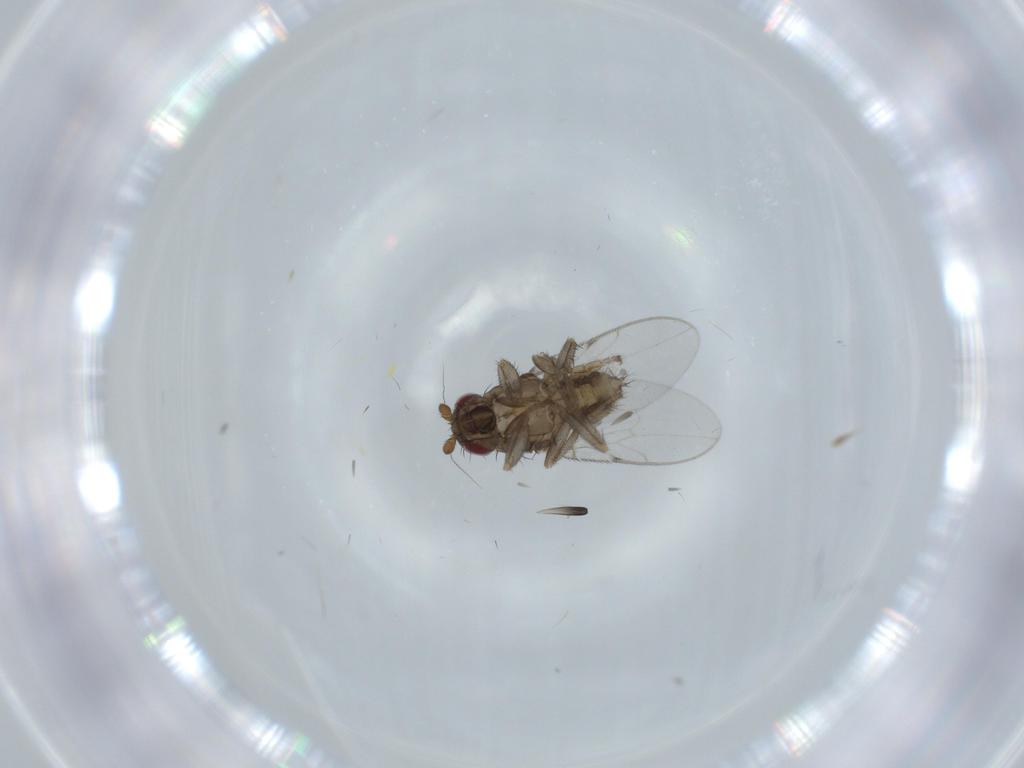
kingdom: Animalia
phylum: Arthropoda
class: Insecta
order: Diptera
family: Sphaeroceridae
